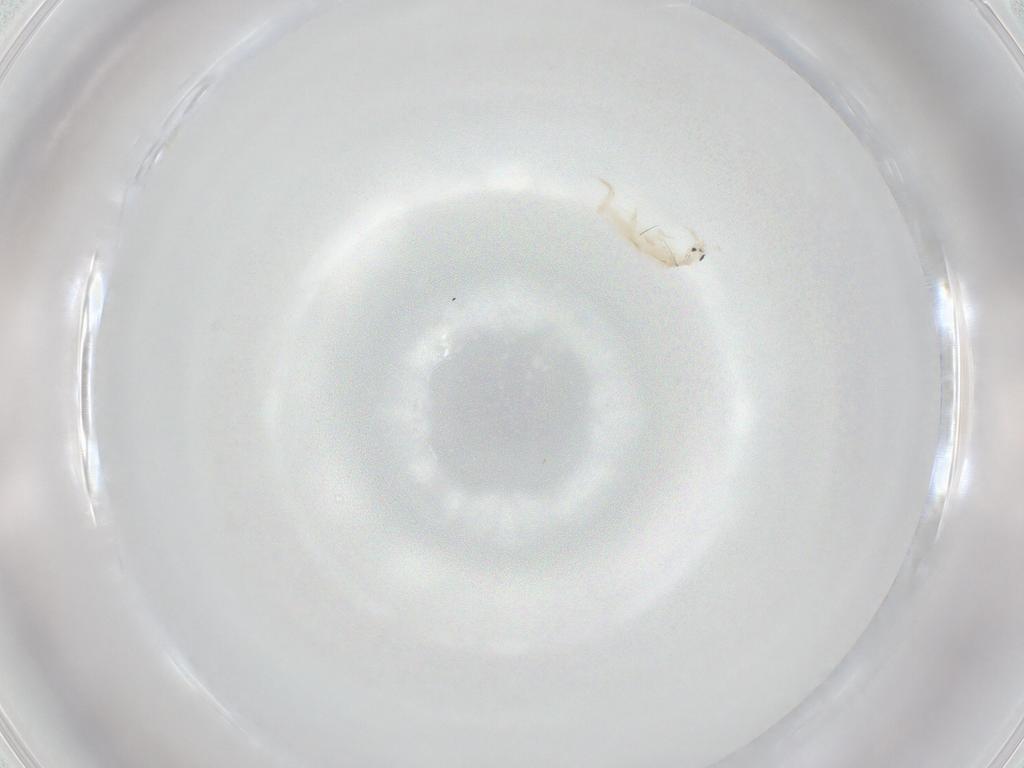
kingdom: Animalia
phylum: Arthropoda
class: Collembola
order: Entomobryomorpha
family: Entomobryidae
